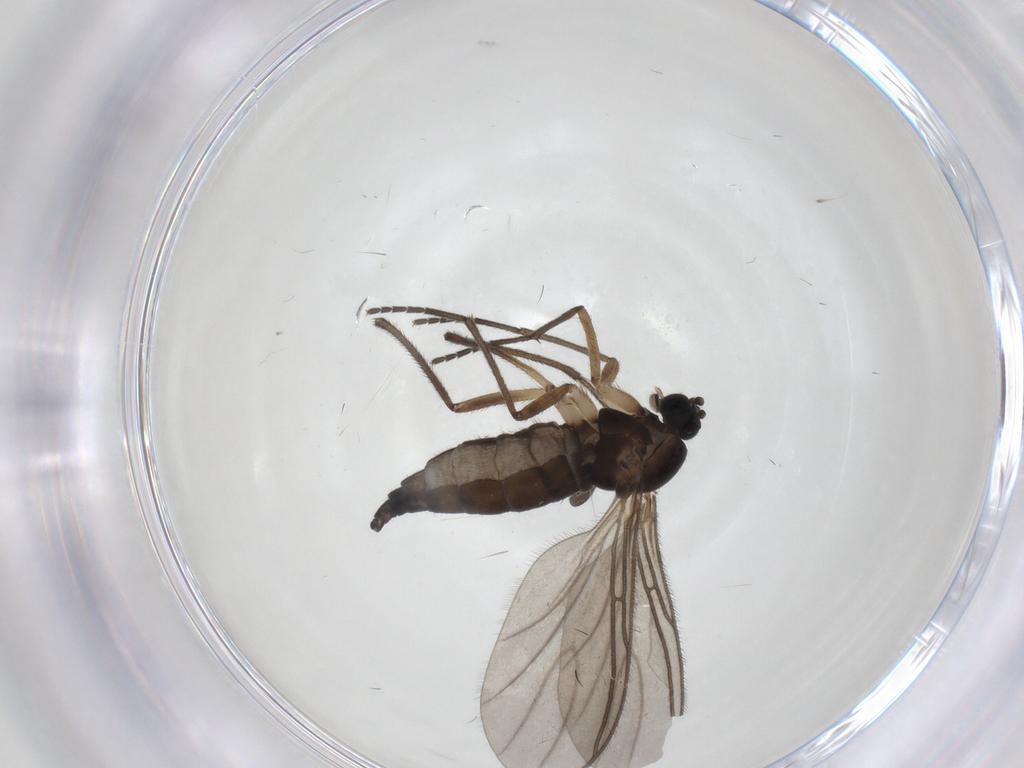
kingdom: Animalia
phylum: Arthropoda
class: Insecta
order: Diptera
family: Sciaridae
